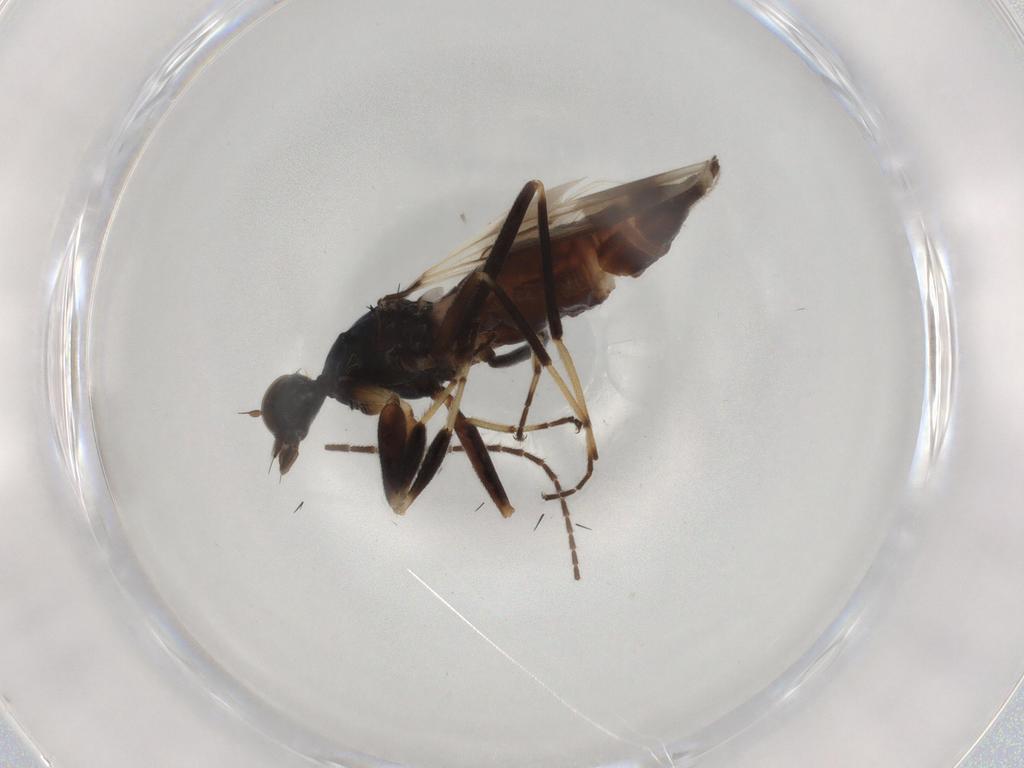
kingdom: Animalia
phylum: Arthropoda
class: Insecta
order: Diptera
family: Hybotidae
